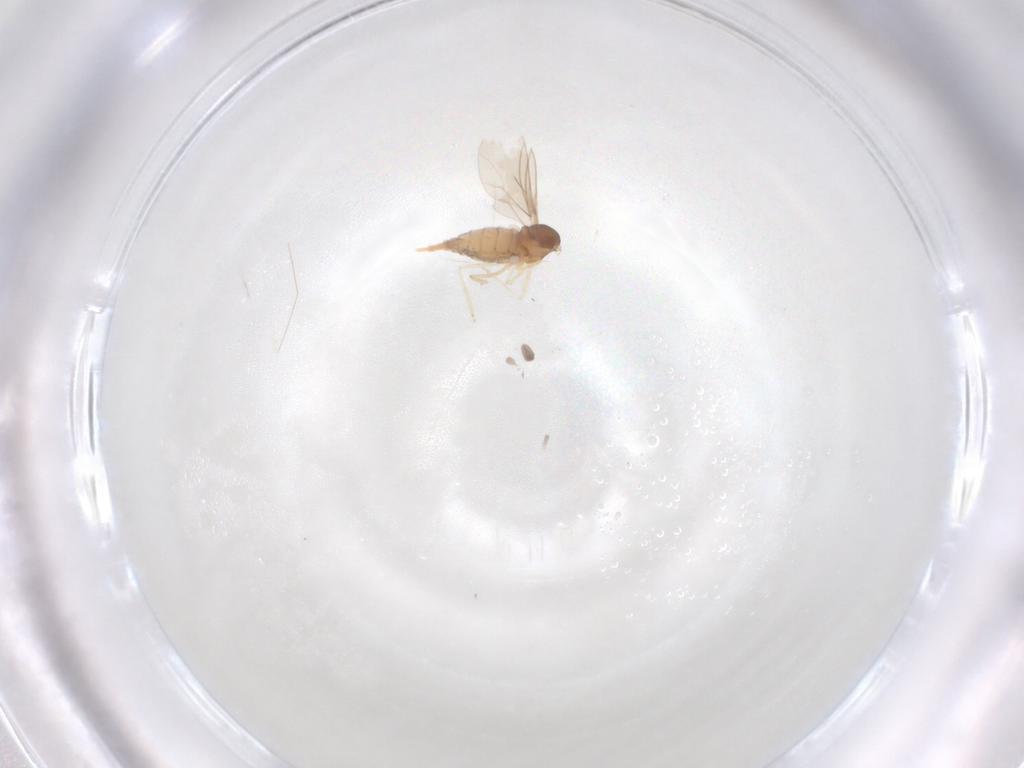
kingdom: Animalia
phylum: Arthropoda
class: Insecta
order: Diptera
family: Cecidomyiidae
